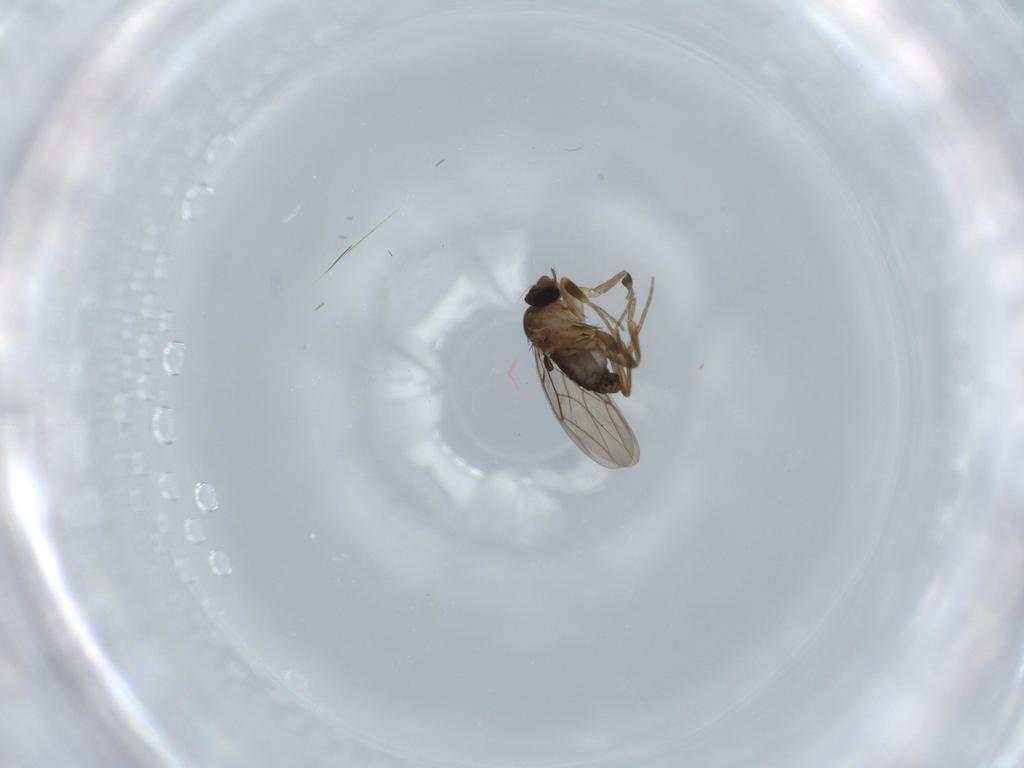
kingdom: Animalia
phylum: Arthropoda
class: Insecta
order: Diptera
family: Phoridae
